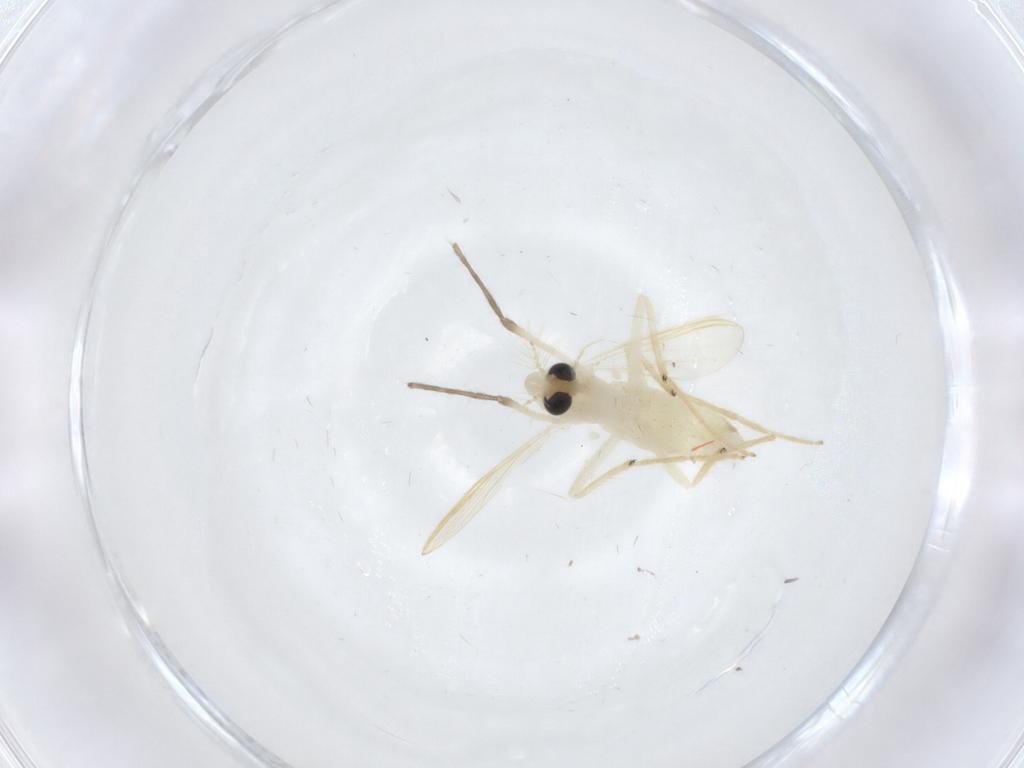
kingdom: Animalia
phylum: Arthropoda
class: Insecta
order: Diptera
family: Chironomidae
